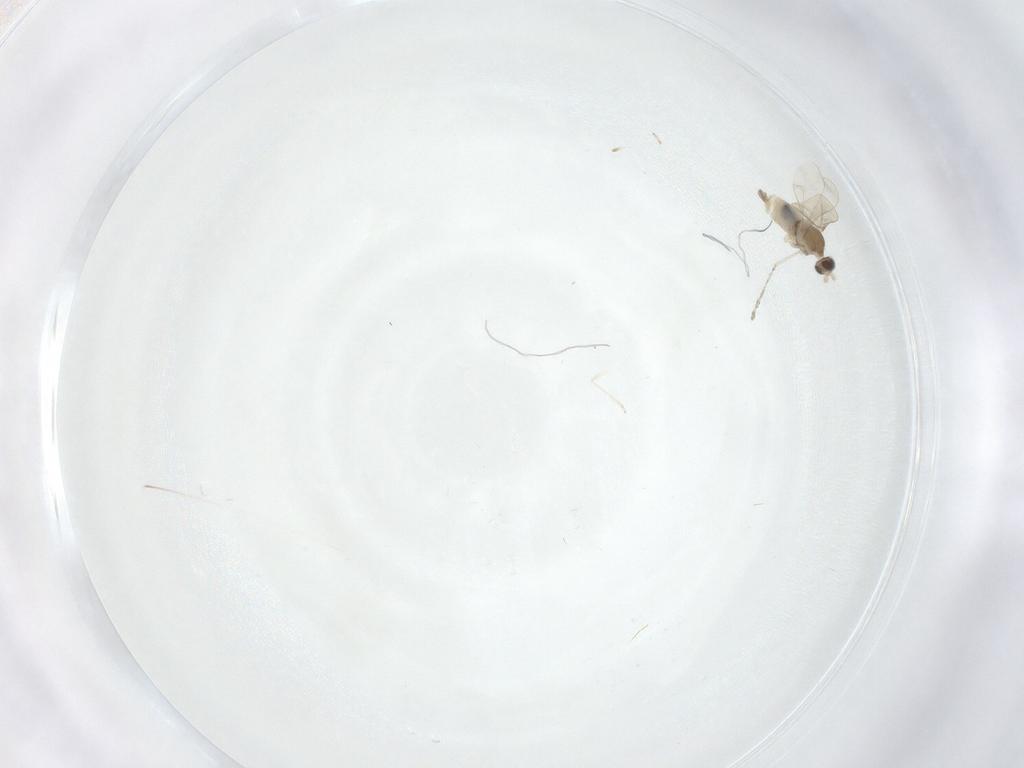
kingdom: Animalia
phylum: Arthropoda
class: Insecta
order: Diptera
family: Cecidomyiidae
